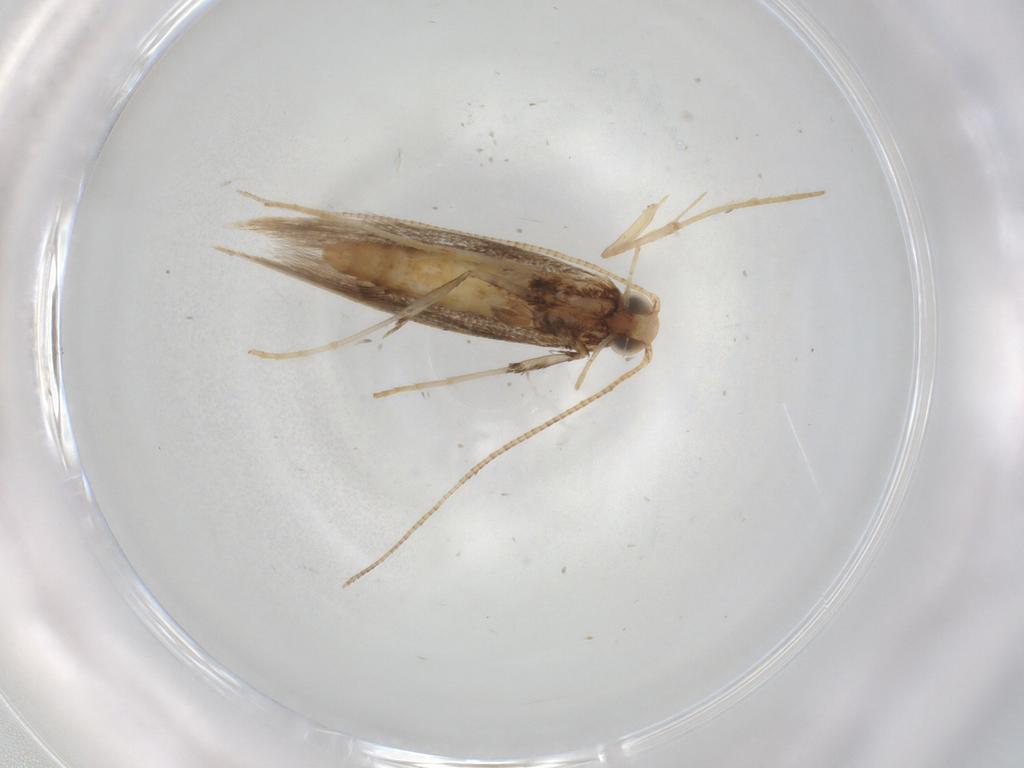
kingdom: Animalia
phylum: Arthropoda
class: Insecta
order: Lepidoptera
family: Gracillariidae
